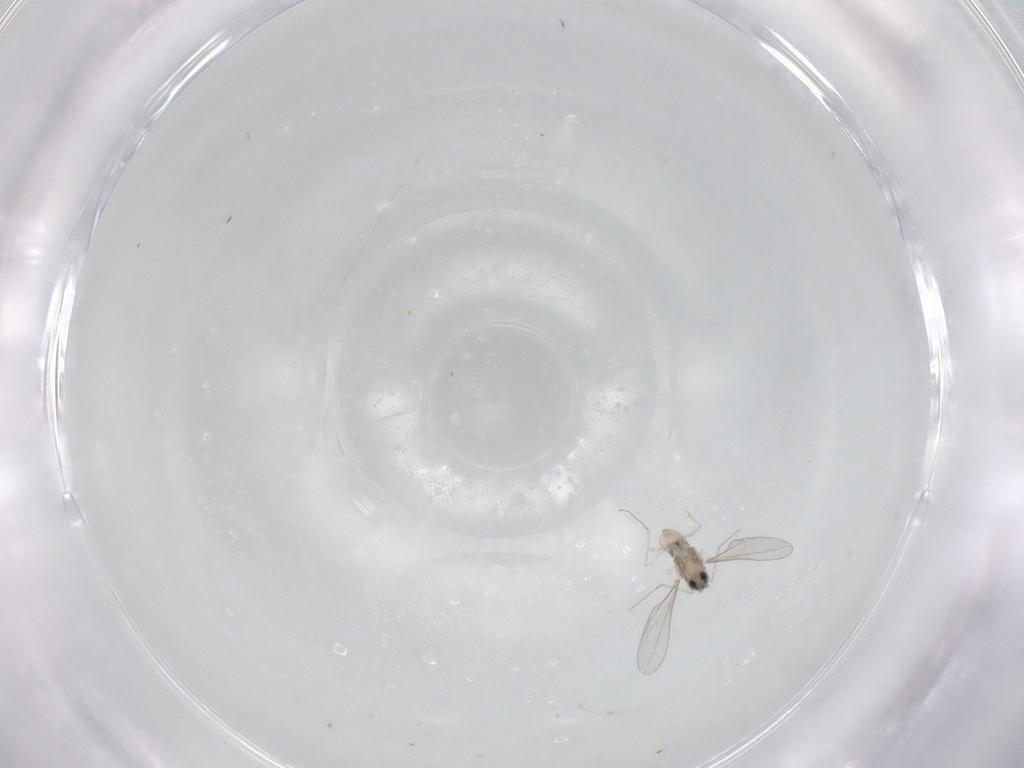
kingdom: Animalia
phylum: Arthropoda
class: Insecta
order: Diptera
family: Cecidomyiidae
